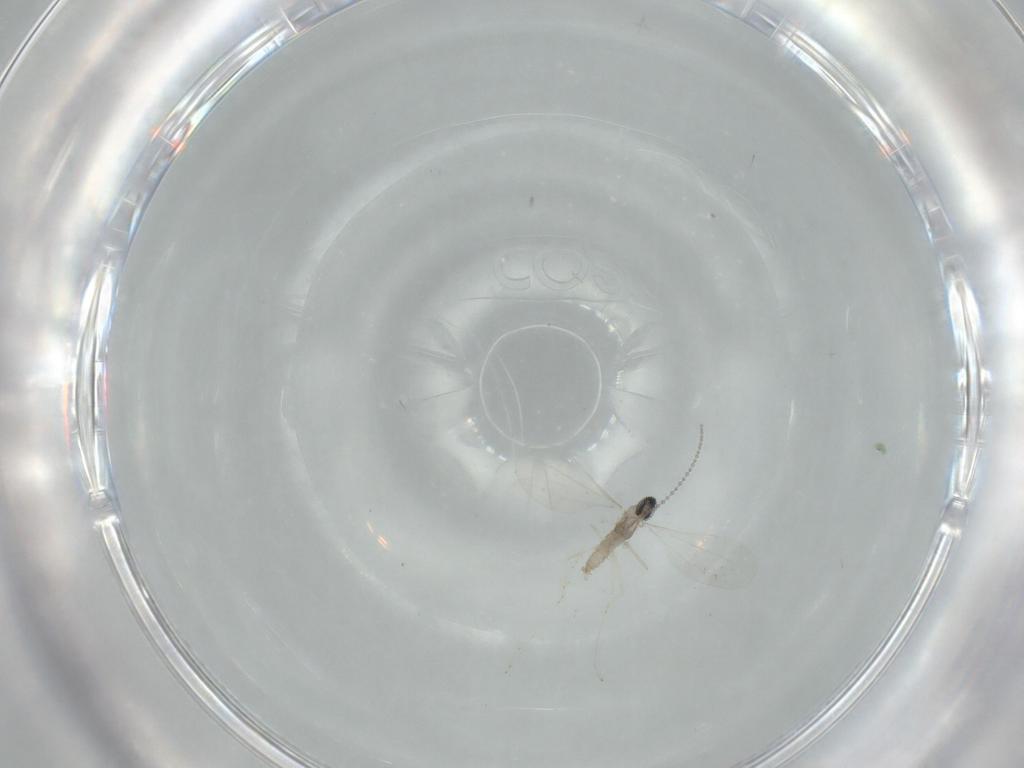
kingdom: Animalia
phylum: Arthropoda
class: Insecta
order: Diptera
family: Cecidomyiidae
